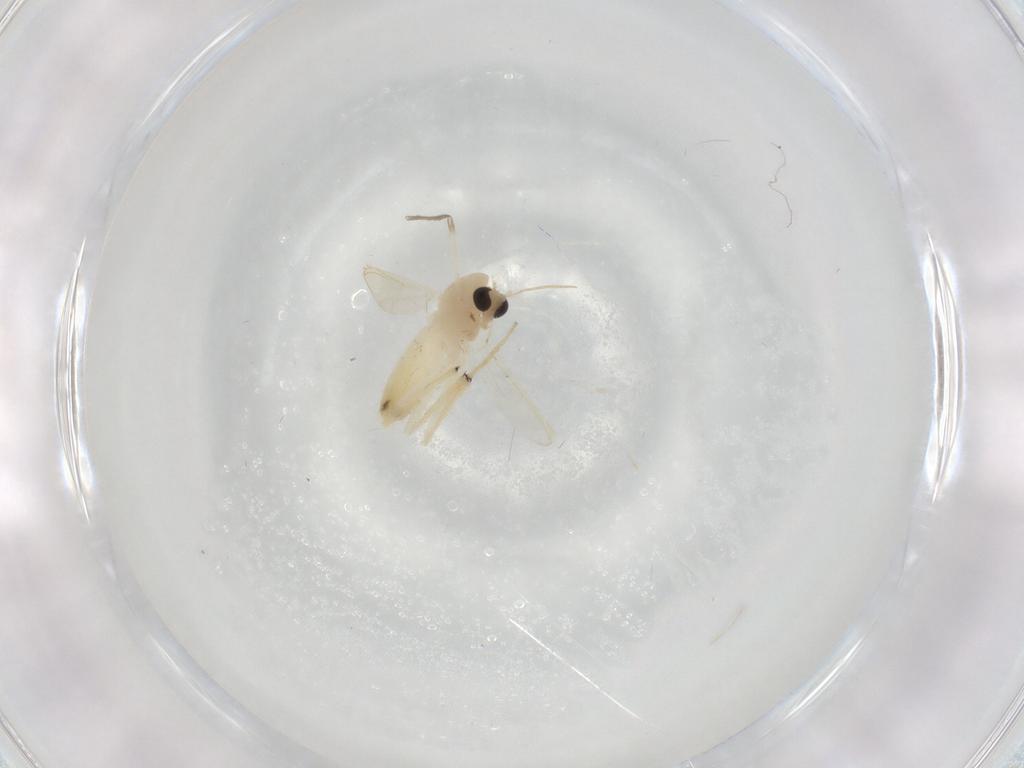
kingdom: Animalia
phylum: Arthropoda
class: Insecta
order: Diptera
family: Chironomidae
